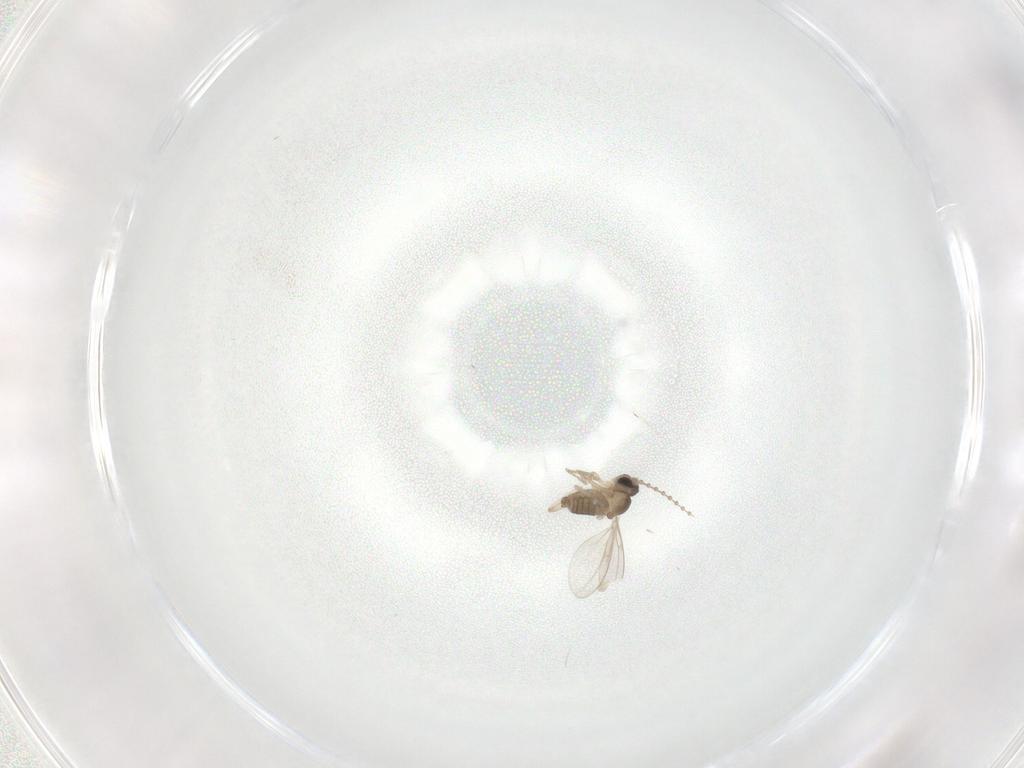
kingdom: Animalia
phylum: Arthropoda
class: Insecta
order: Diptera
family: Cecidomyiidae
